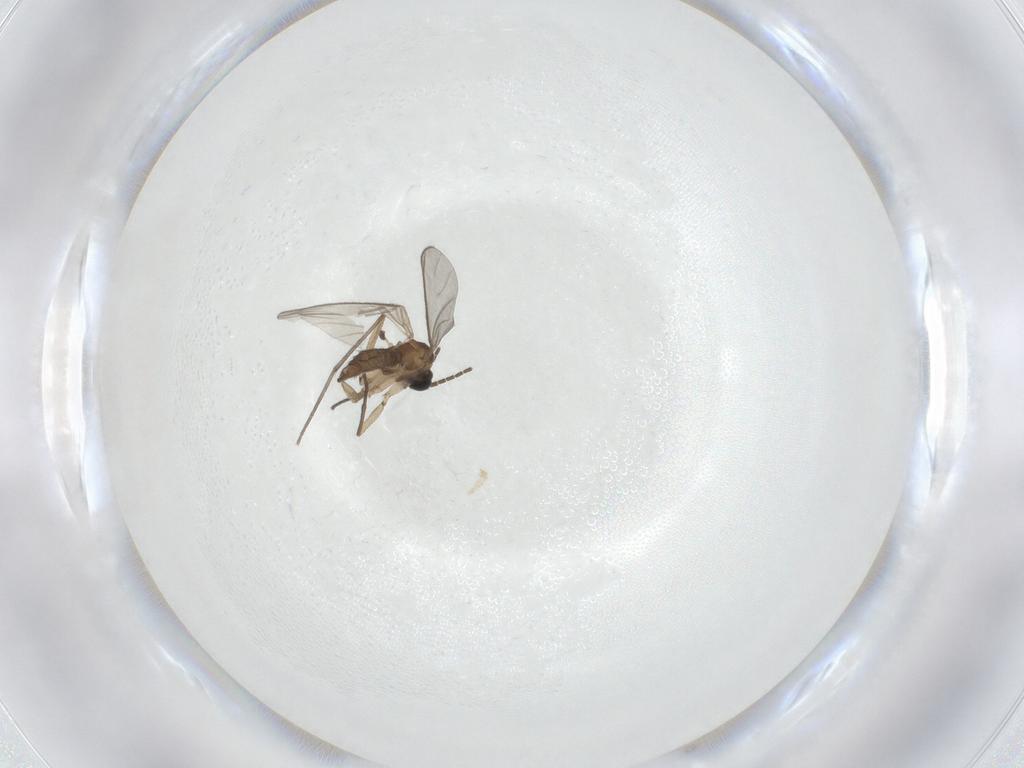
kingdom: Animalia
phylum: Arthropoda
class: Insecta
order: Diptera
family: Sciaridae
